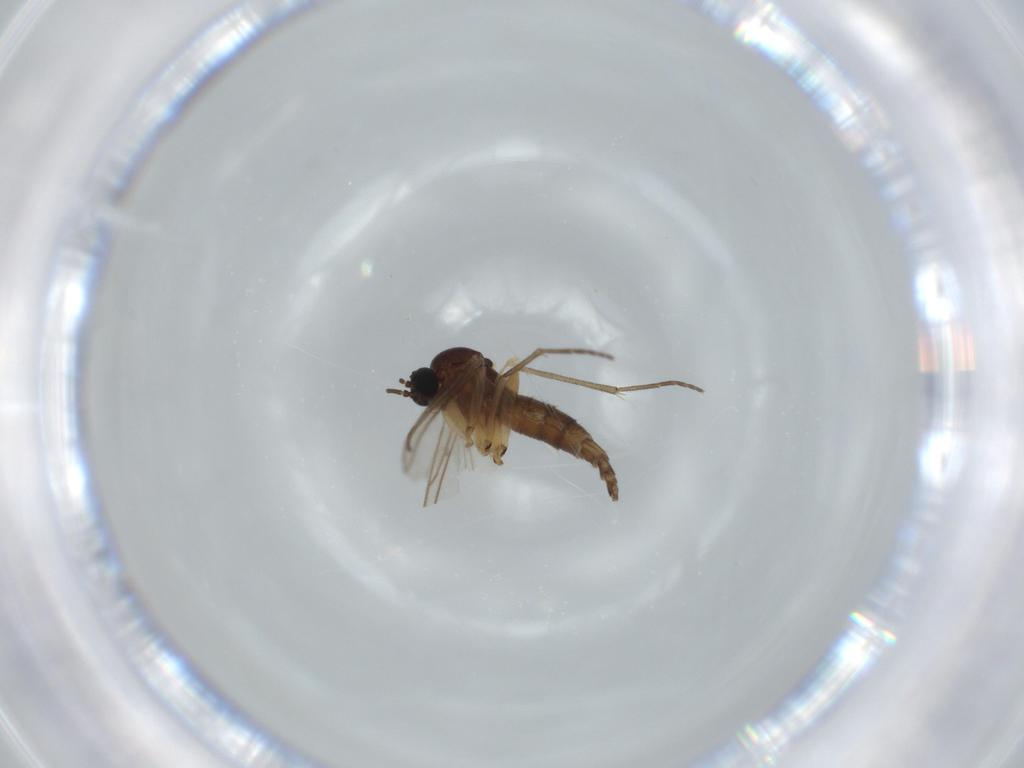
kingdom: Animalia
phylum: Arthropoda
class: Insecta
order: Diptera
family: Sciaridae
